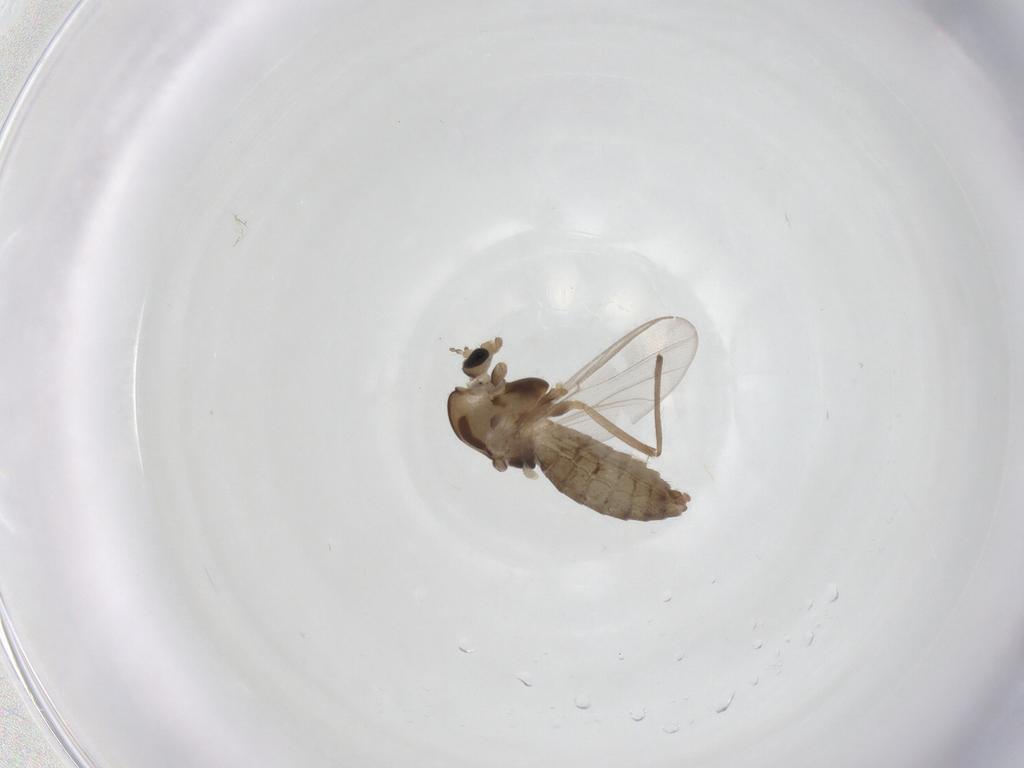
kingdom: Animalia
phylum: Arthropoda
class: Insecta
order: Diptera
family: Chironomidae
